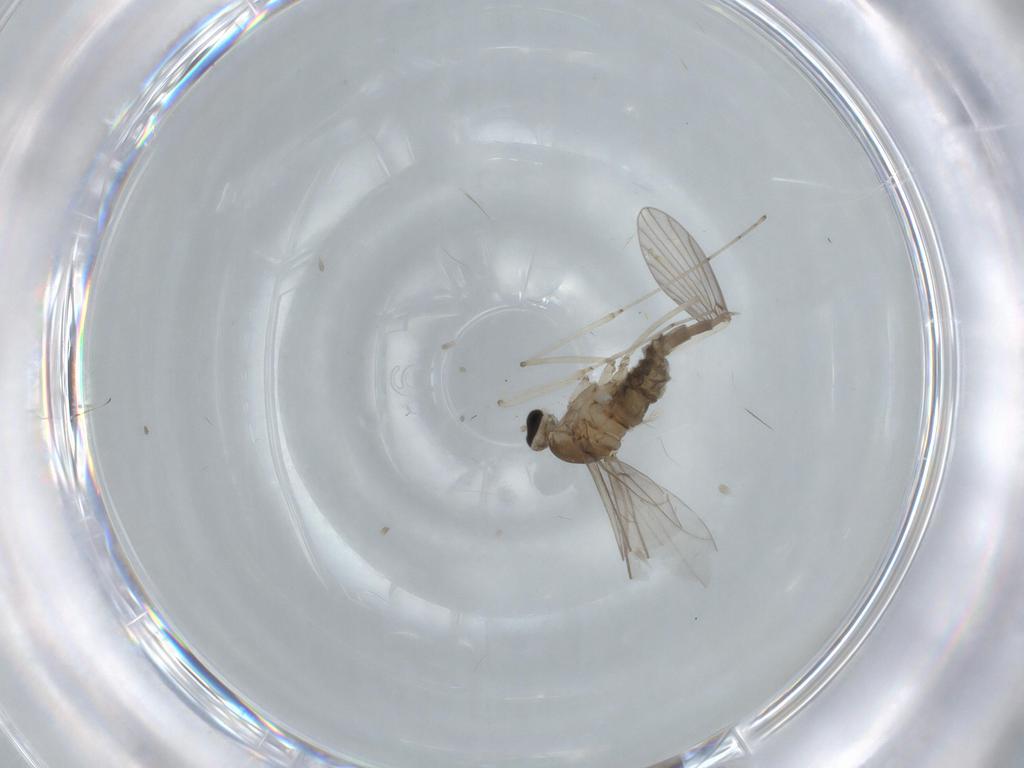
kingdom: Animalia
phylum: Arthropoda
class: Insecta
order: Diptera
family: Cecidomyiidae
